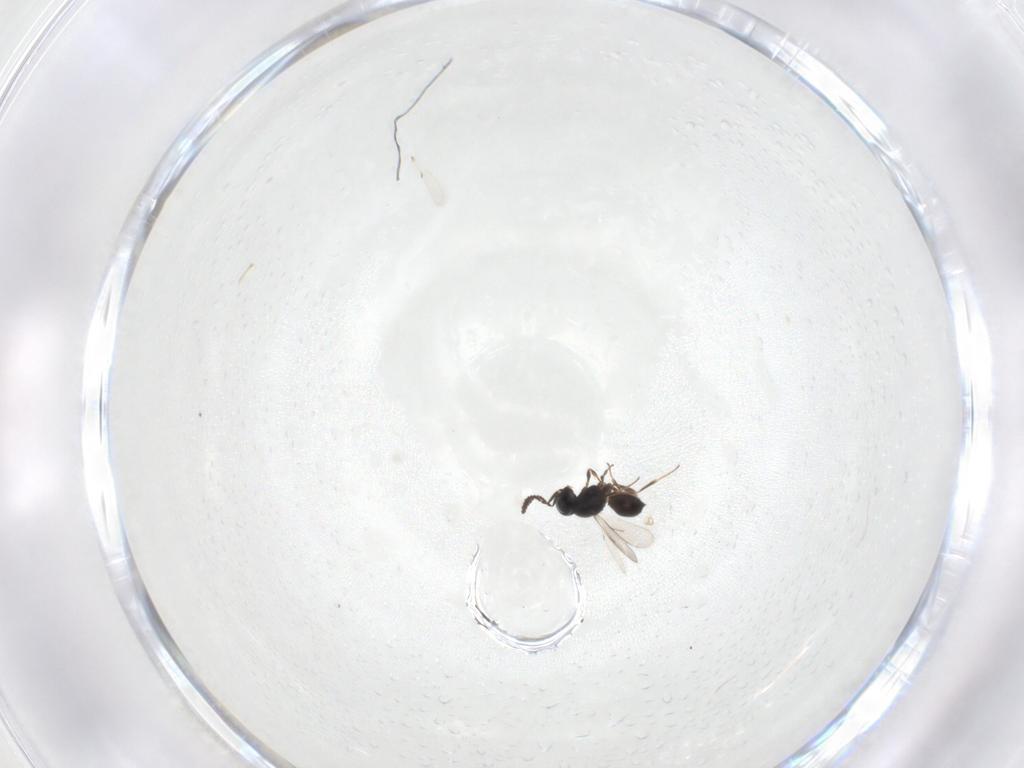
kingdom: Animalia
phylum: Arthropoda
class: Insecta
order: Hymenoptera
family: Scelionidae
